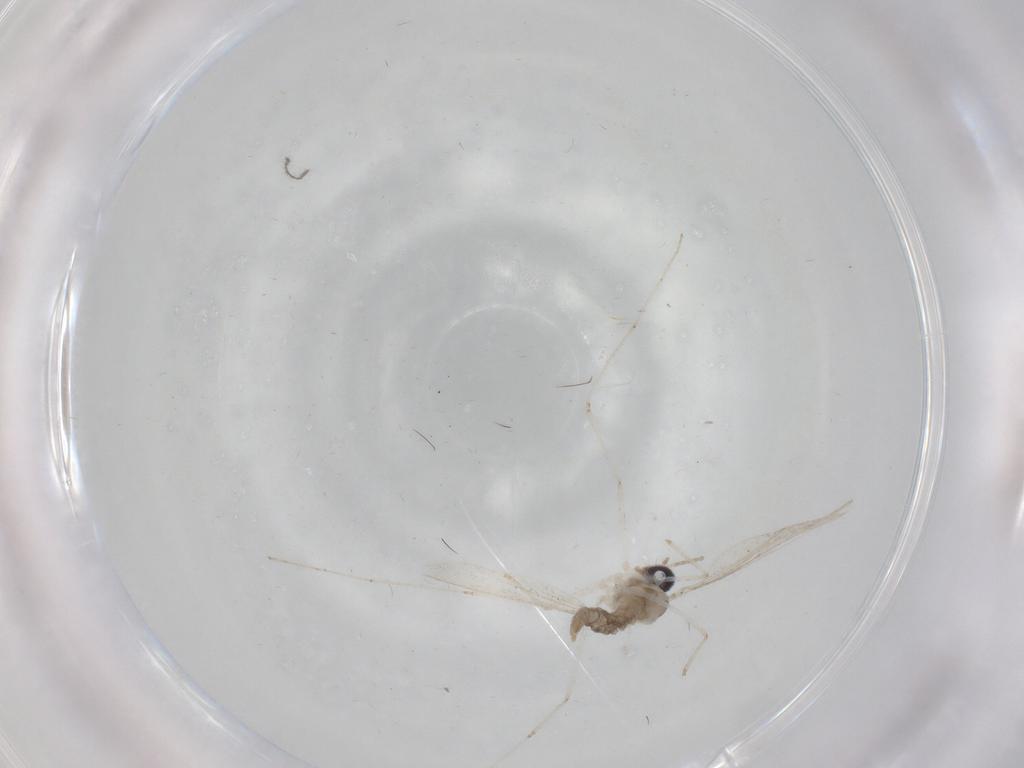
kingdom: Animalia
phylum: Arthropoda
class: Insecta
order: Diptera
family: Cecidomyiidae
